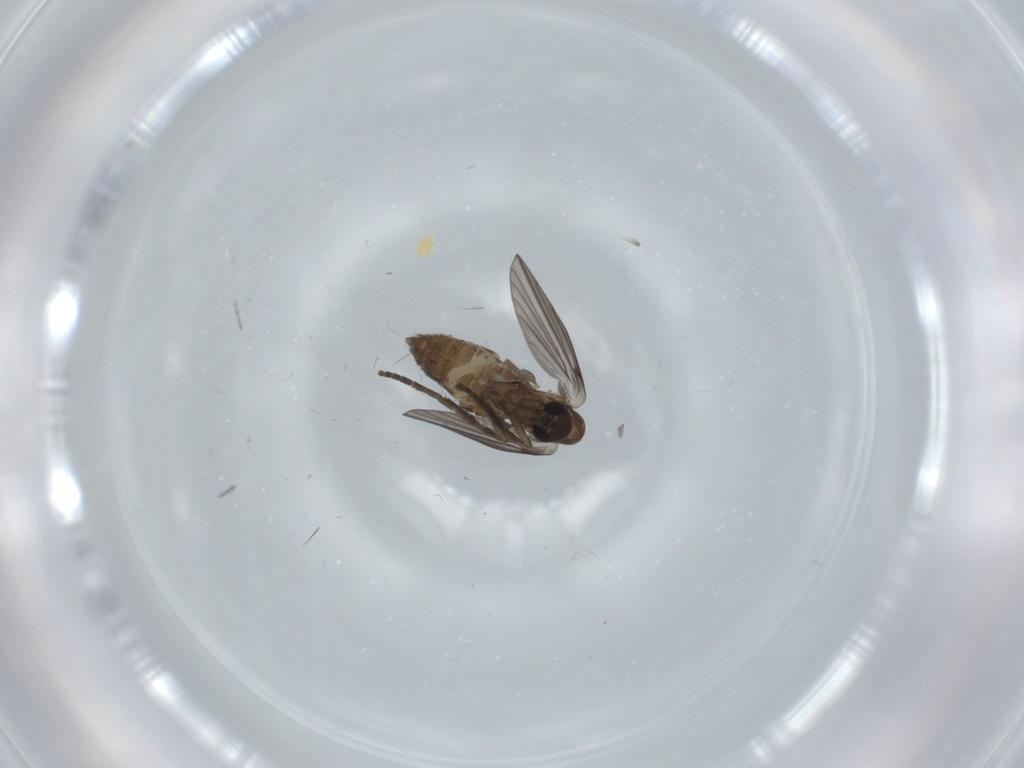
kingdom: Animalia
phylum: Arthropoda
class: Insecta
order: Diptera
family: Psychodidae
